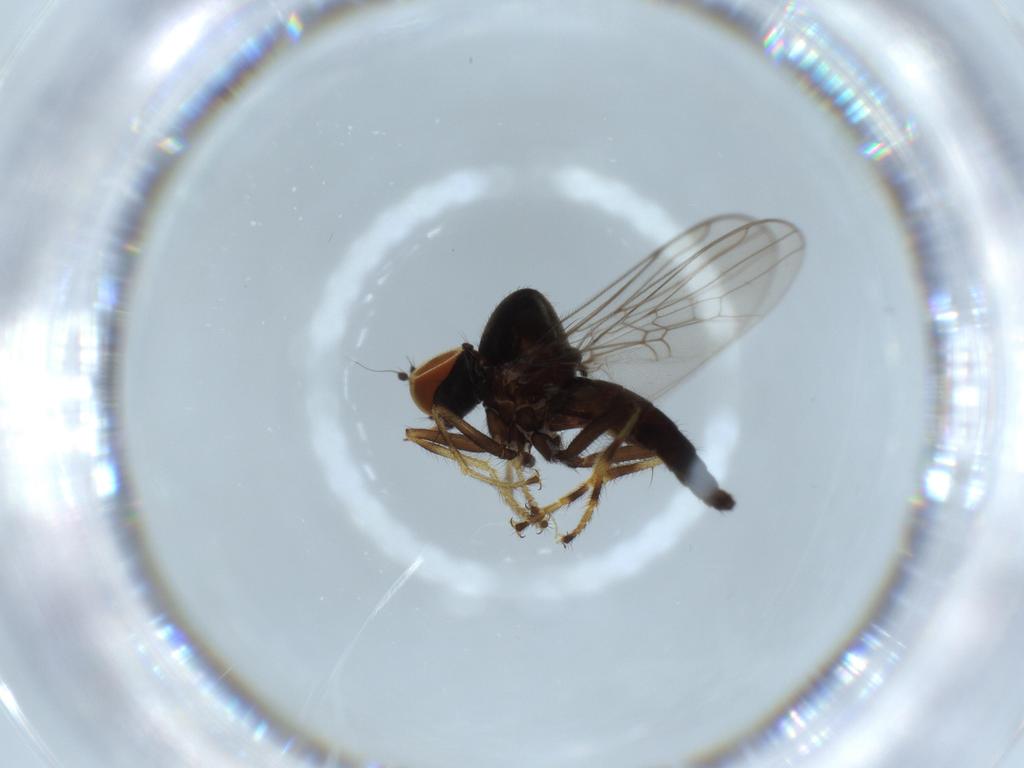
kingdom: Animalia
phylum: Arthropoda
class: Insecta
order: Diptera
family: Hybotidae
